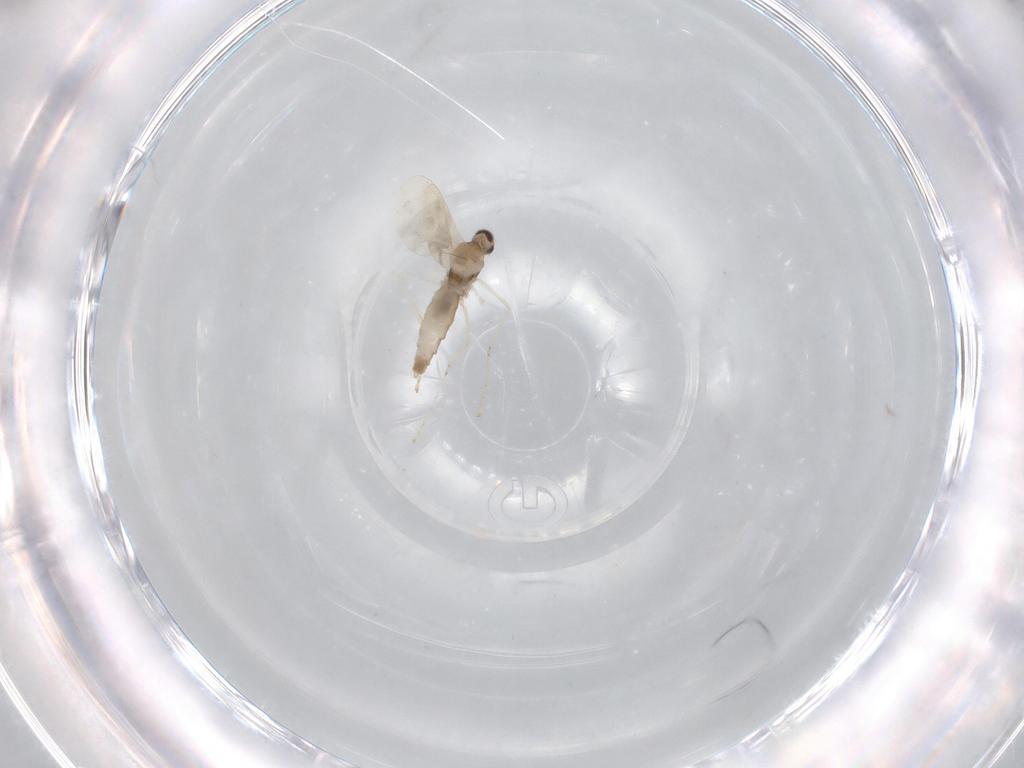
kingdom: Animalia
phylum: Arthropoda
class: Insecta
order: Diptera
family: Cecidomyiidae
